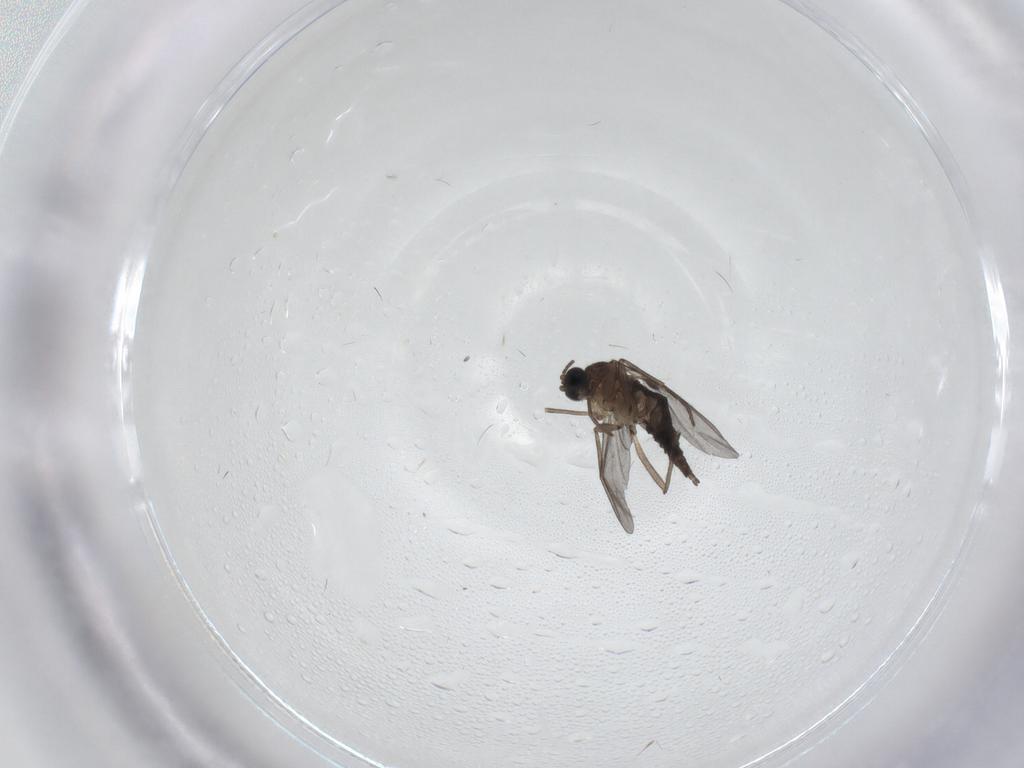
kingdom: Animalia
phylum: Arthropoda
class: Insecta
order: Diptera
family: Sciaridae
